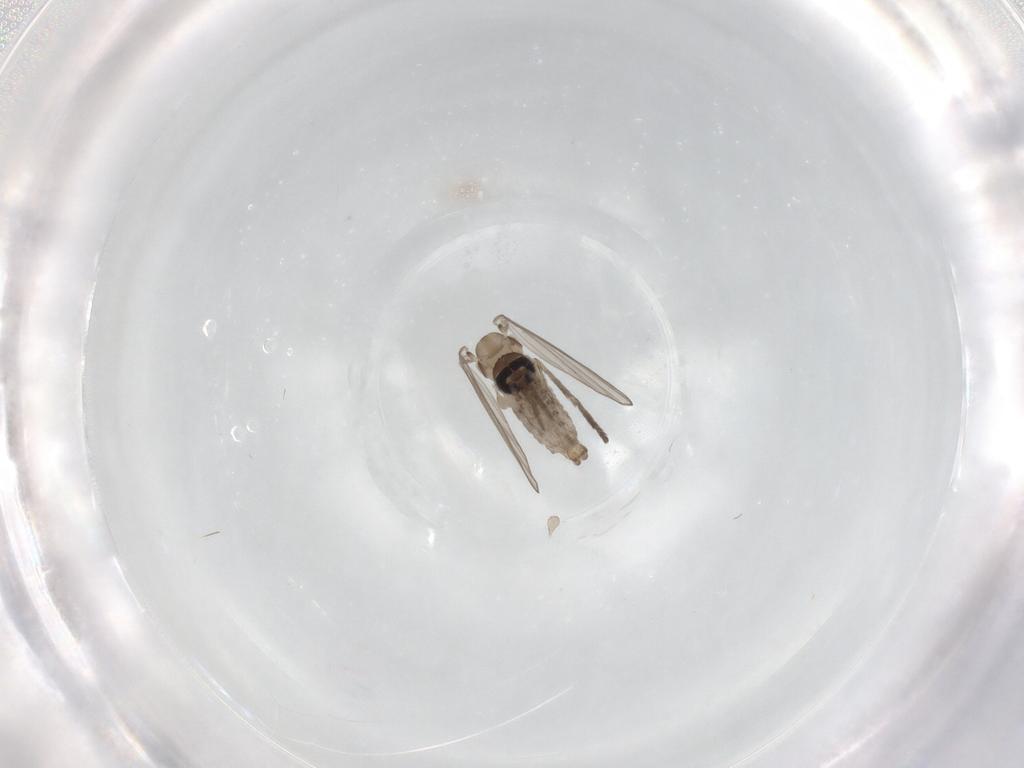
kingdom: Animalia
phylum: Arthropoda
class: Insecta
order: Diptera
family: Psychodidae
